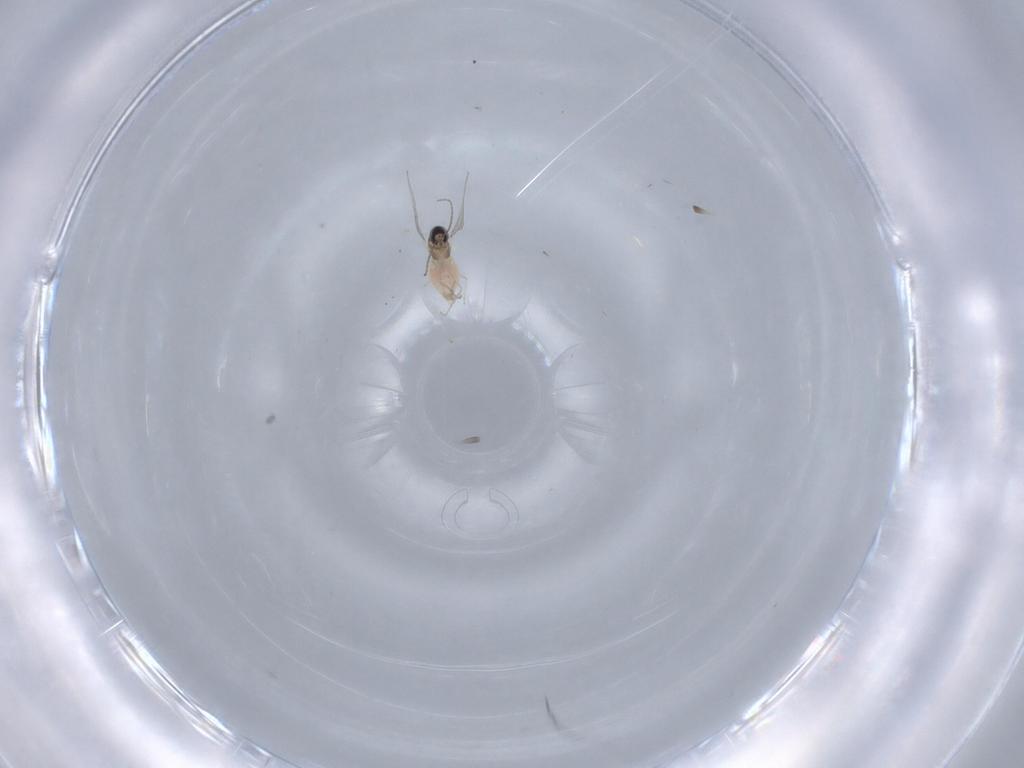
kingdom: Animalia
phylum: Arthropoda
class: Insecta
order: Diptera
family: Cecidomyiidae
